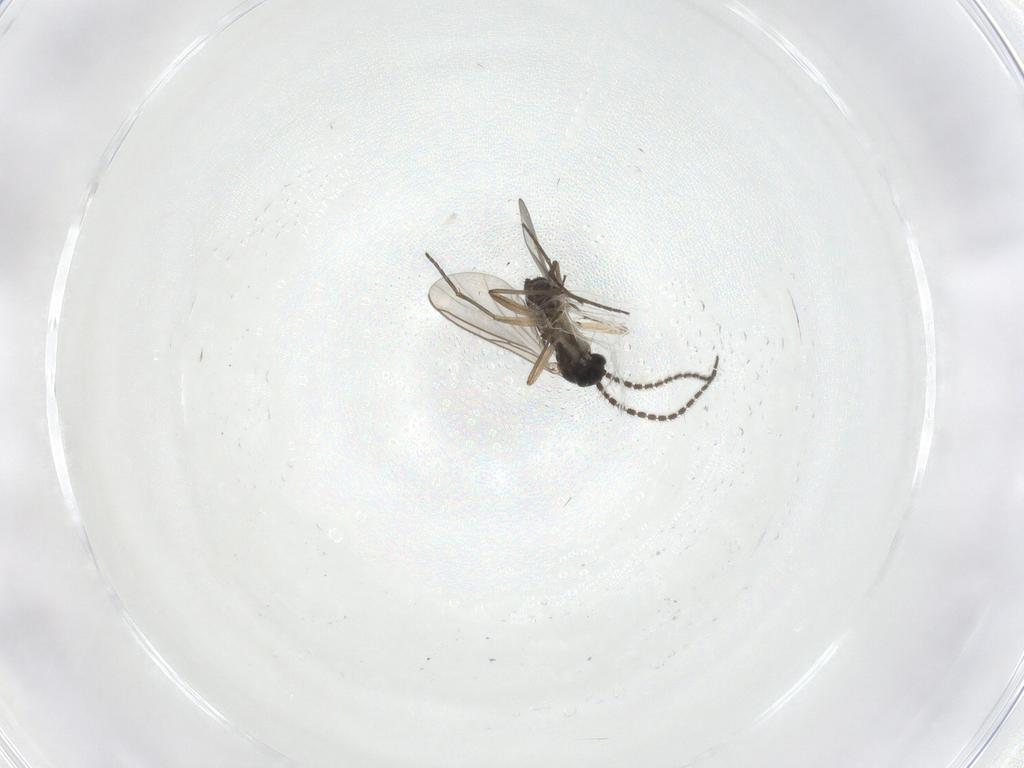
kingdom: Animalia
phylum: Arthropoda
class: Insecta
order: Diptera
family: Sciaridae
